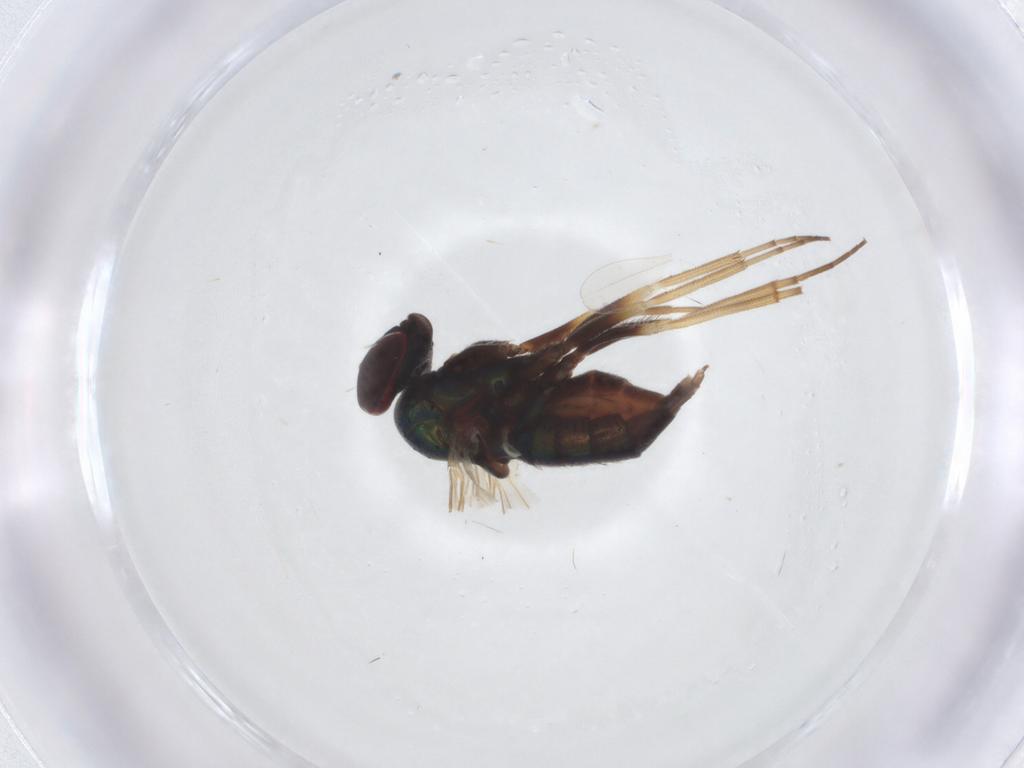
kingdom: Animalia
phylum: Arthropoda
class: Insecta
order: Diptera
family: Dolichopodidae
